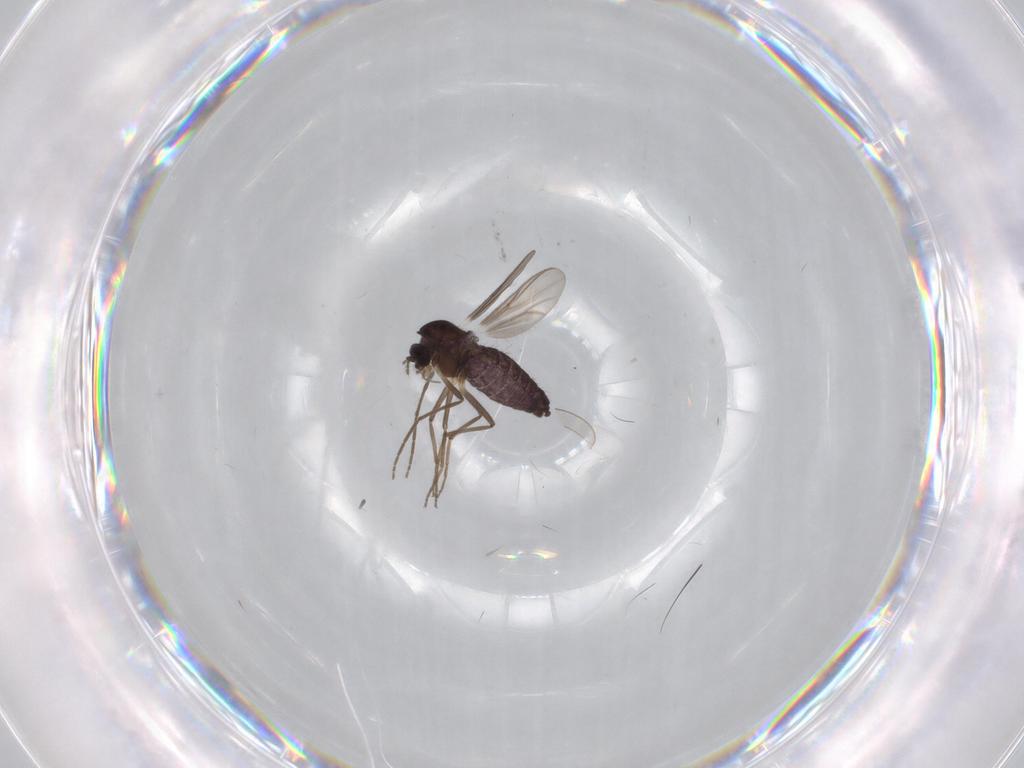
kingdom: Animalia
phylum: Arthropoda
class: Insecta
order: Diptera
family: Chironomidae
